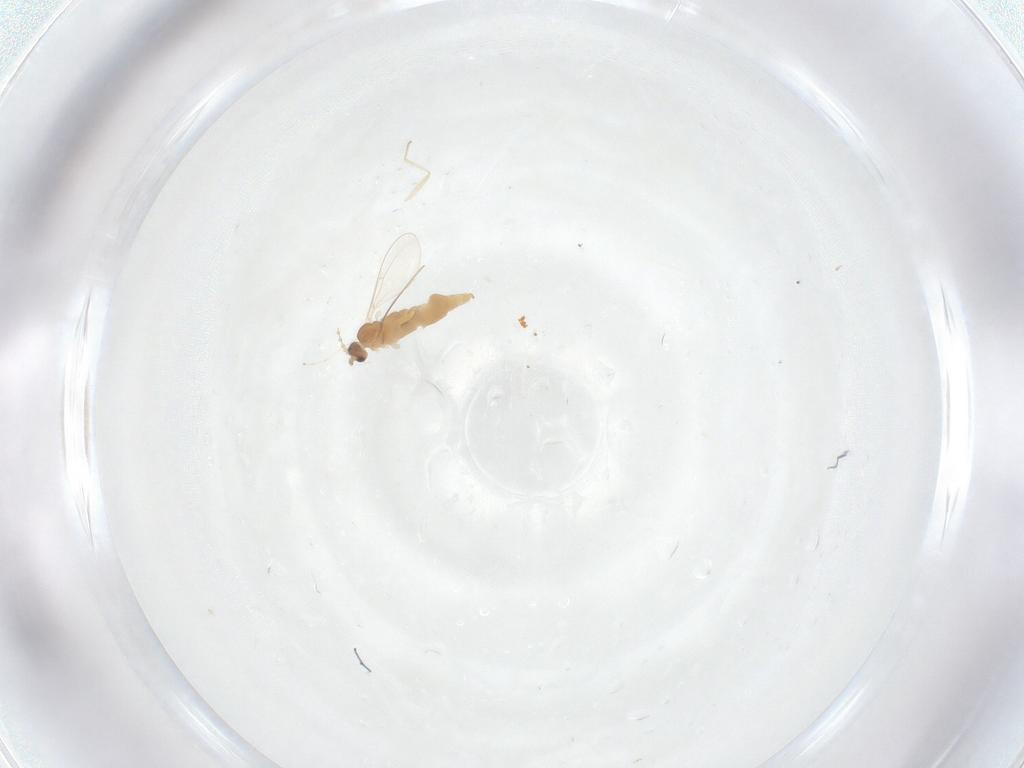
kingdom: Animalia
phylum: Arthropoda
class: Insecta
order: Diptera
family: Cecidomyiidae
